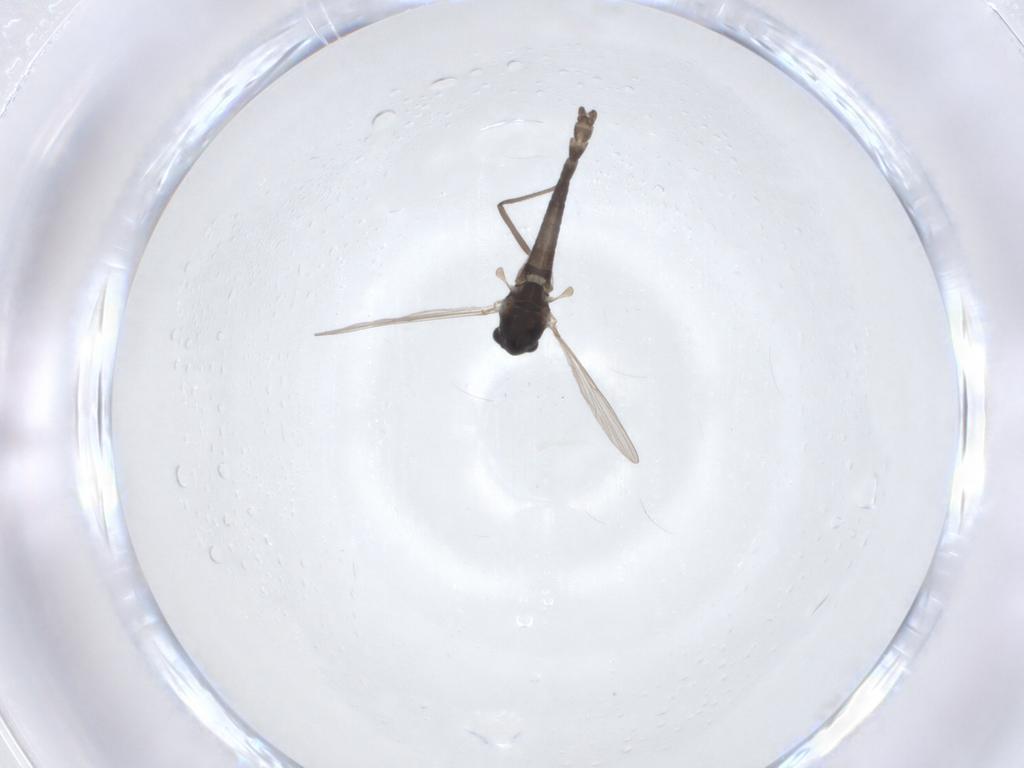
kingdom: Animalia
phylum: Arthropoda
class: Insecta
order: Diptera
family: Chironomidae
